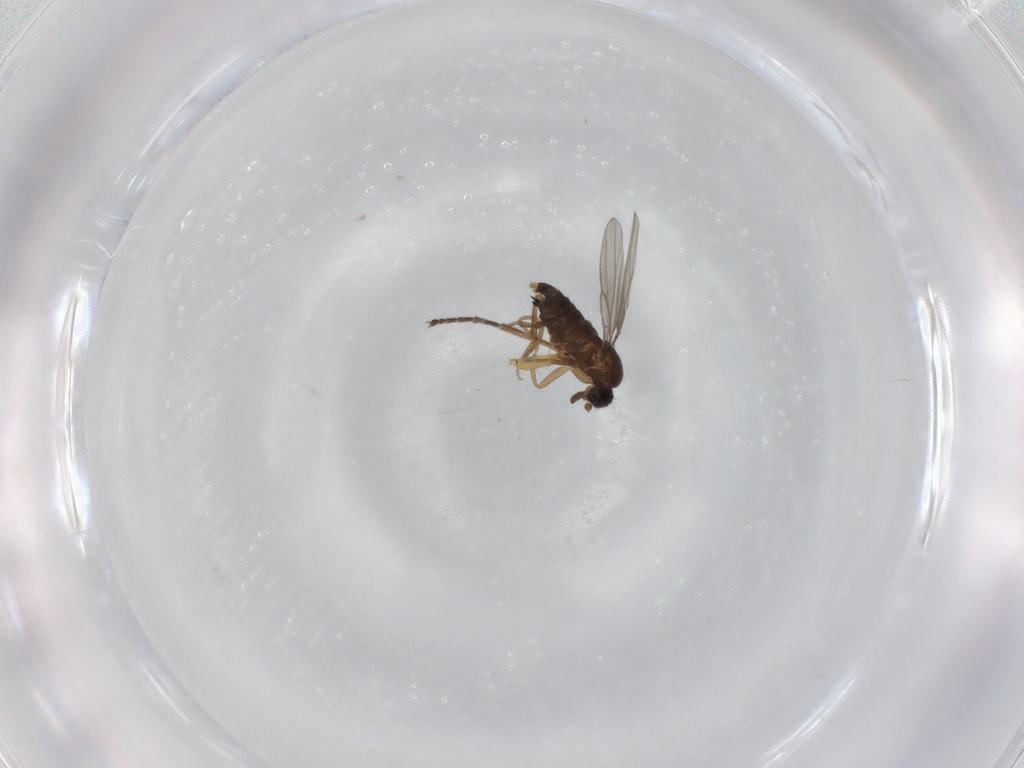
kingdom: Animalia
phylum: Arthropoda
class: Insecta
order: Diptera
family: Agromyzidae
